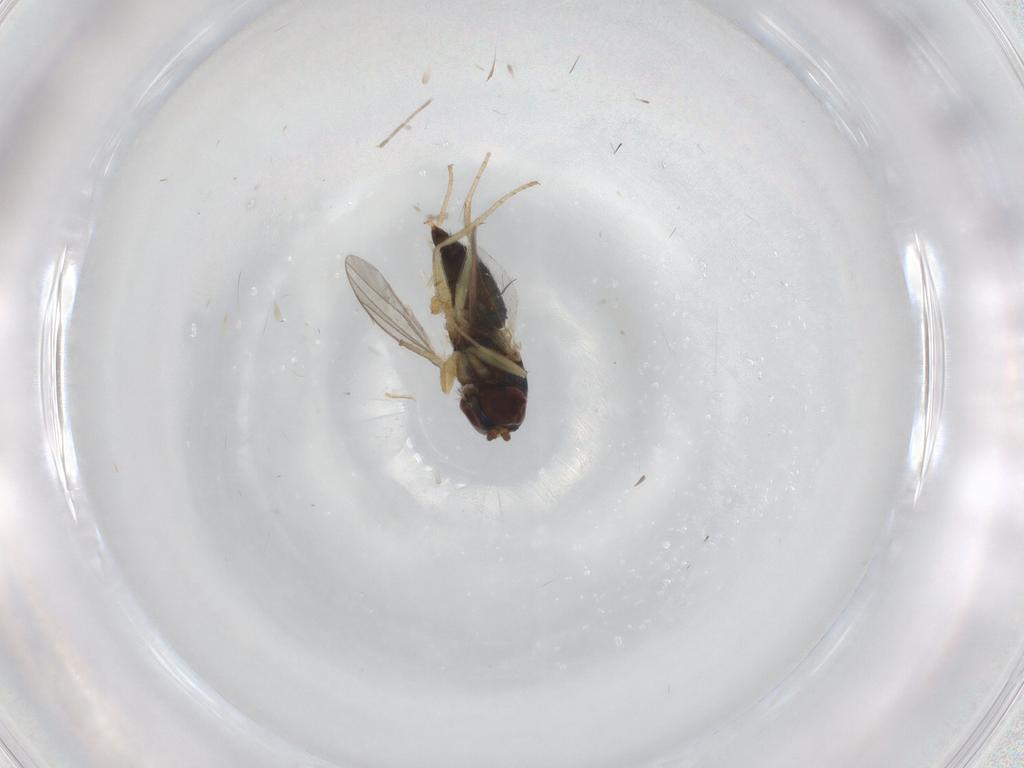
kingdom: Animalia
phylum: Arthropoda
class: Insecta
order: Diptera
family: Dolichopodidae
